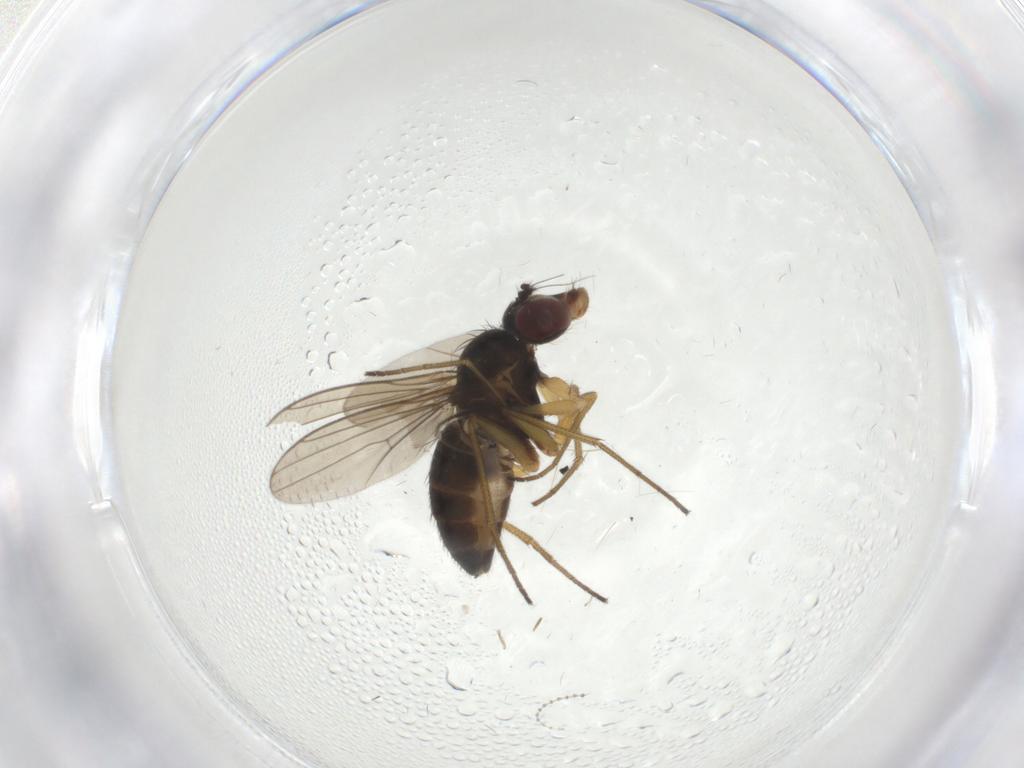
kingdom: Animalia
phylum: Arthropoda
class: Insecta
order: Diptera
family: Dolichopodidae
